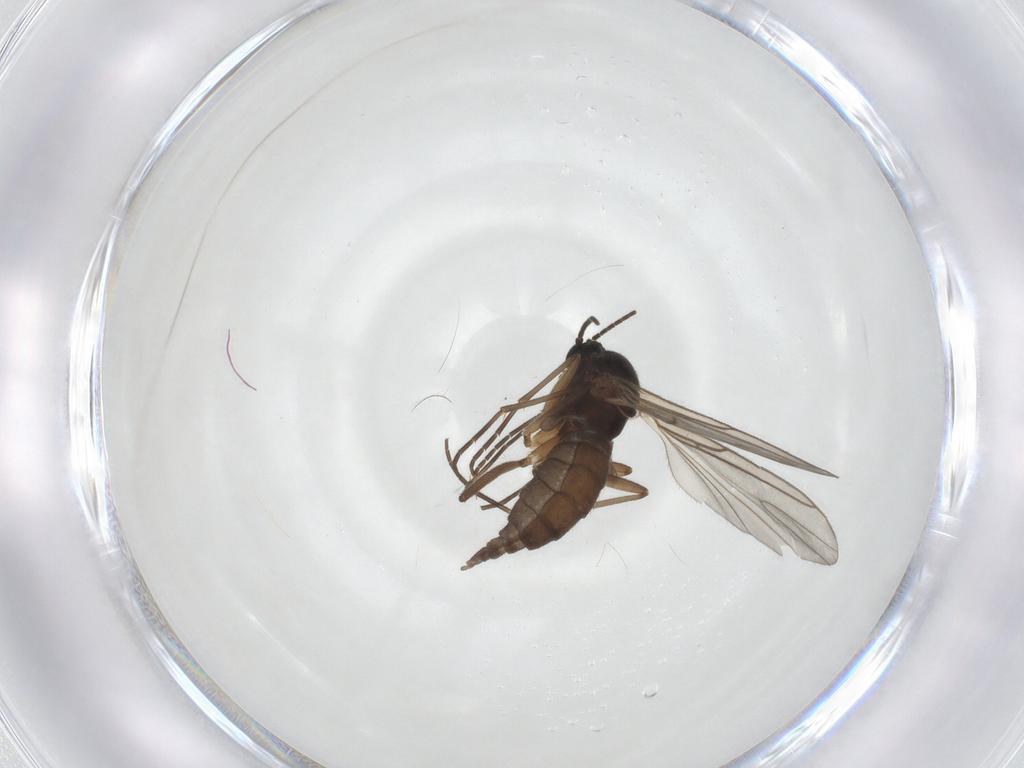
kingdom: Animalia
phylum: Arthropoda
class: Insecta
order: Diptera
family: Sciaridae
